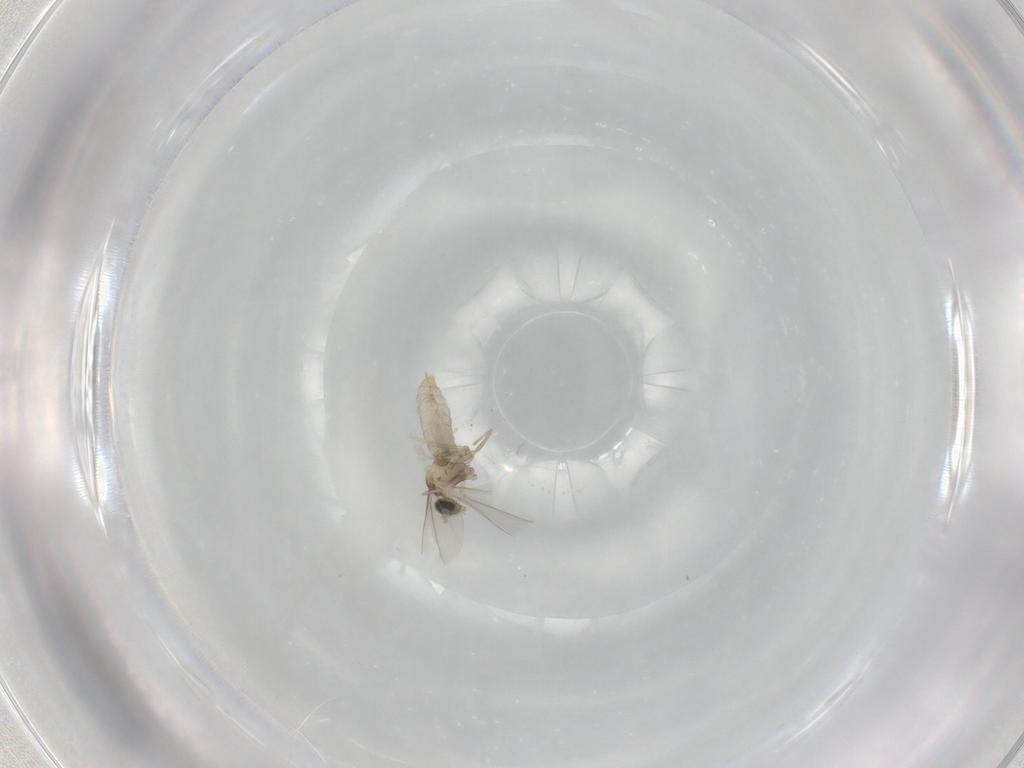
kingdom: Animalia
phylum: Arthropoda
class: Insecta
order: Diptera
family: Cecidomyiidae
